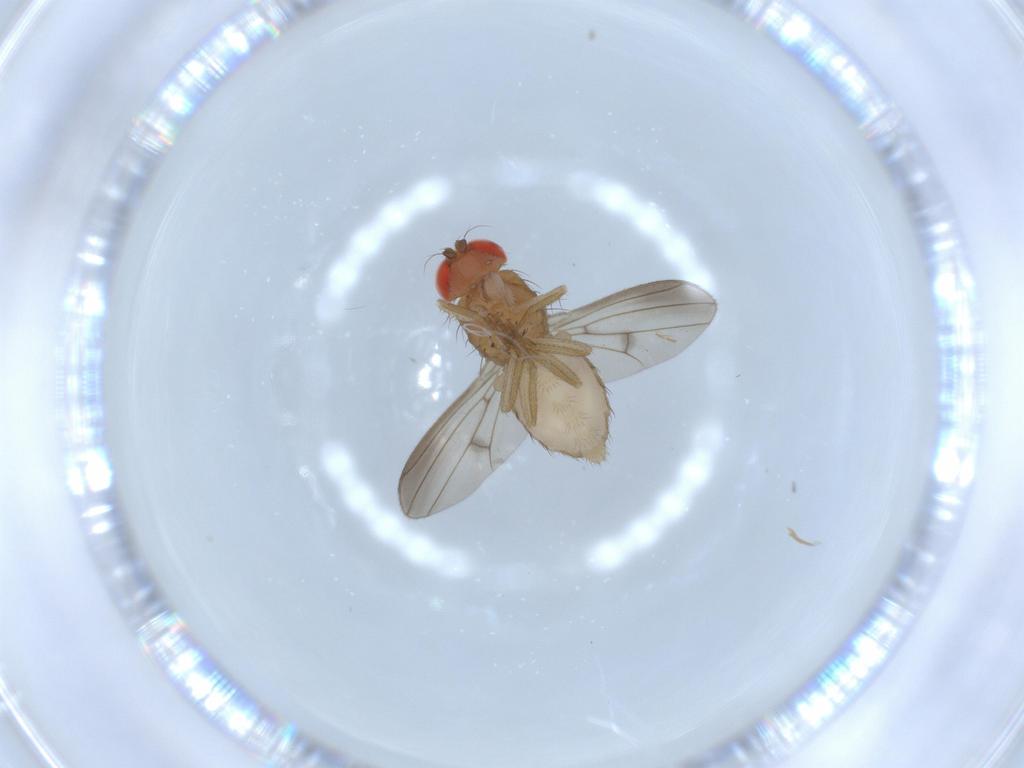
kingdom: Animalia
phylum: Arthropoda
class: Insecta
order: Diptera
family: Drosophilidae
